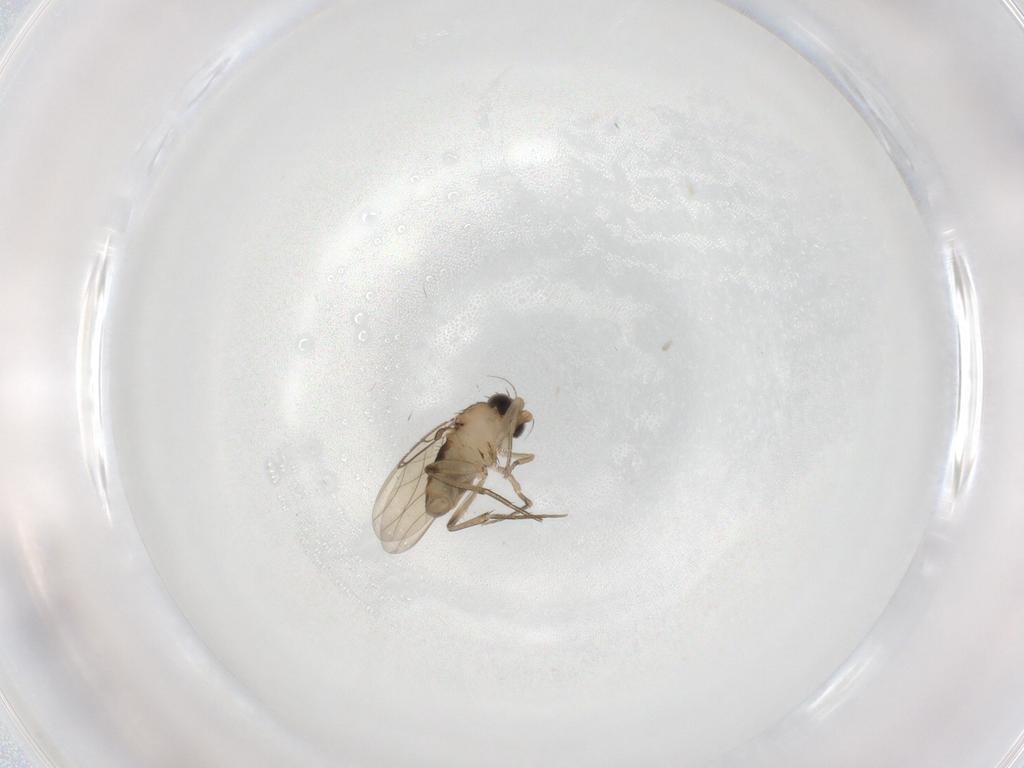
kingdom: Animalia
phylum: Arthropoda
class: Insecta
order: Diptera
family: Phoridae
